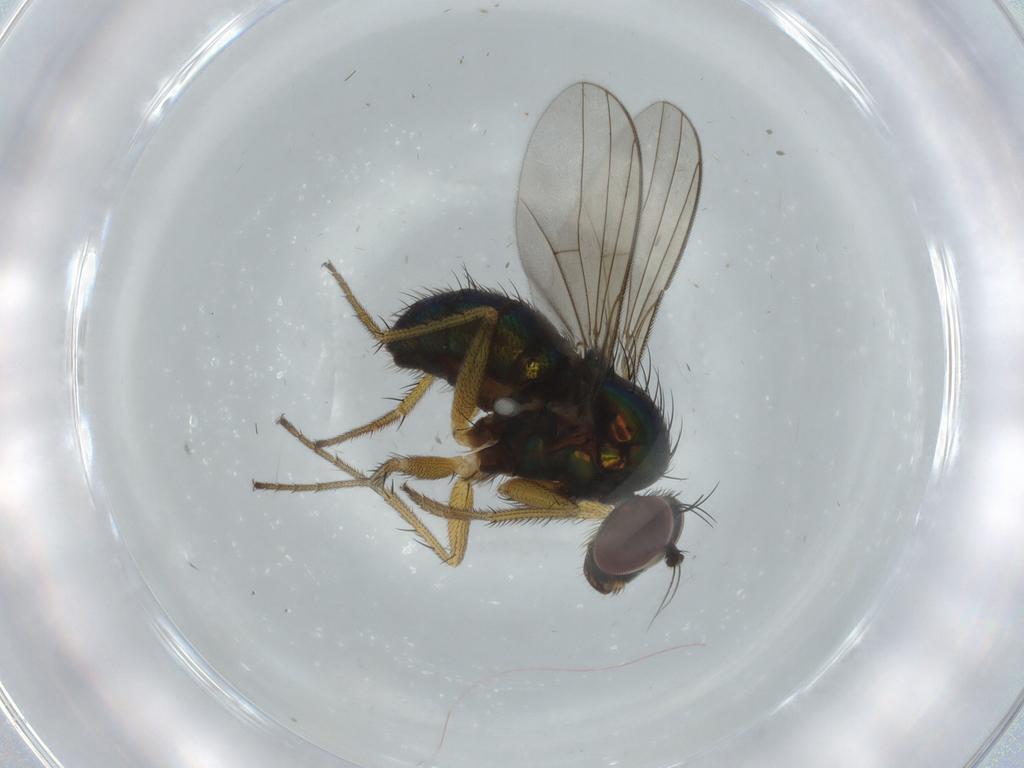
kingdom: Animalia
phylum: Arthropoda
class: Insecta
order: Diptera
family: Dolichopodidae
